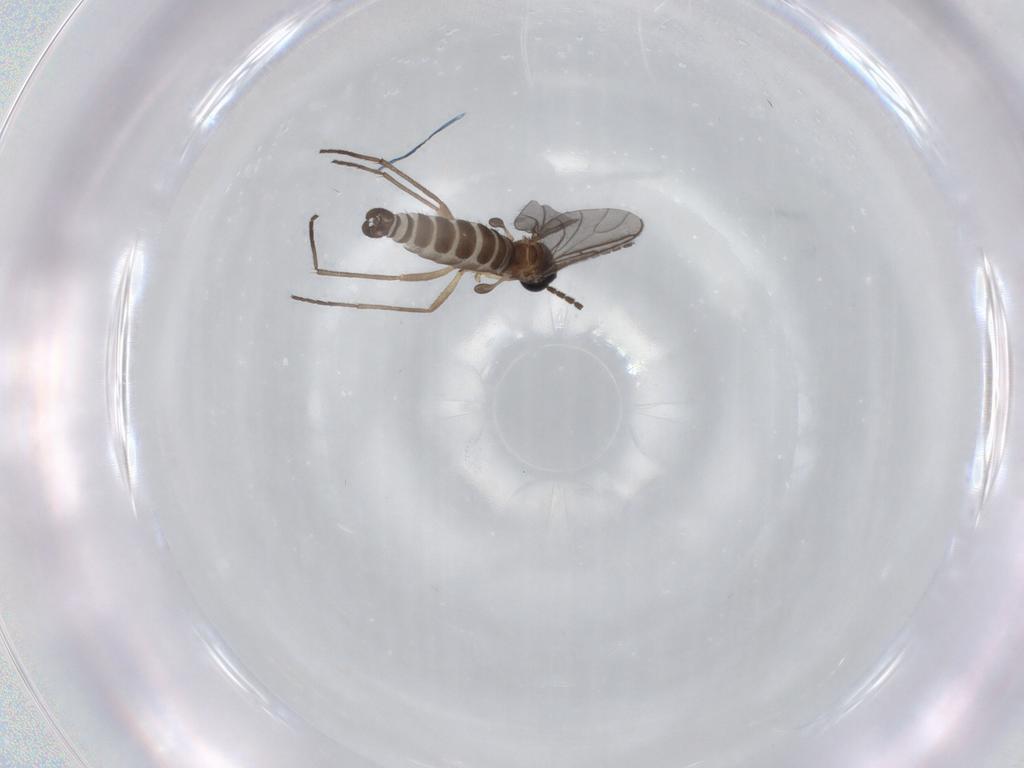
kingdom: Animalia
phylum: Arthropoda
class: Insecta
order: Diptera
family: Sciaridae
